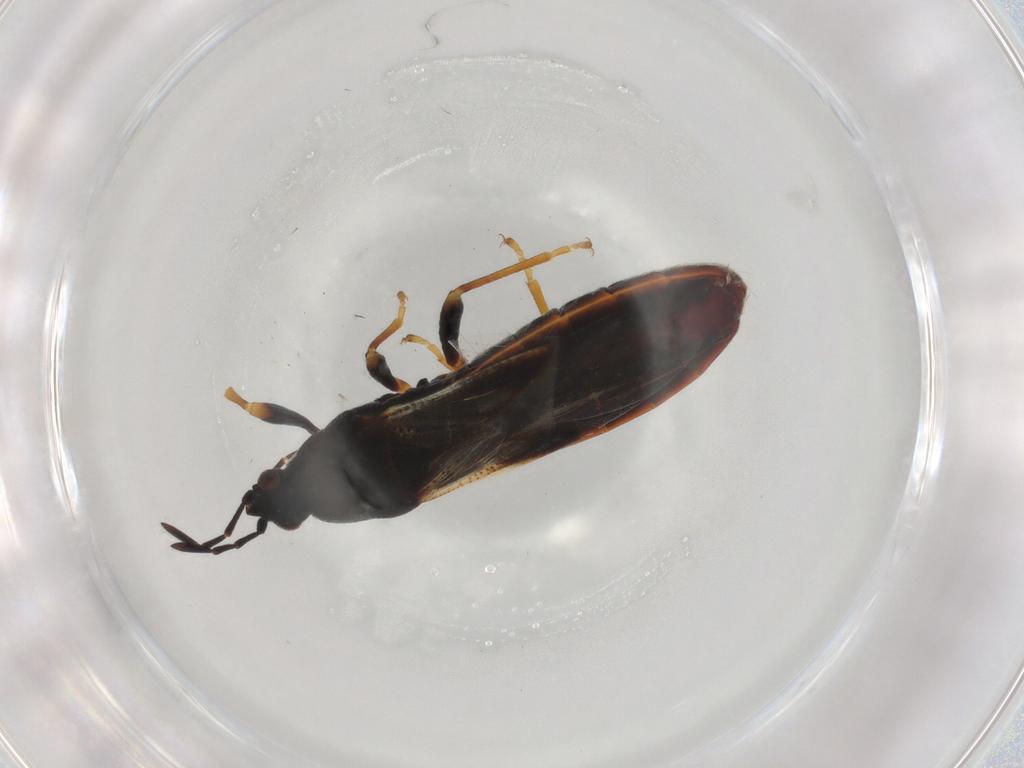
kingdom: Animalia
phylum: Arthropoda
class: Insecta
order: Hemiptera
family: Blissidae
